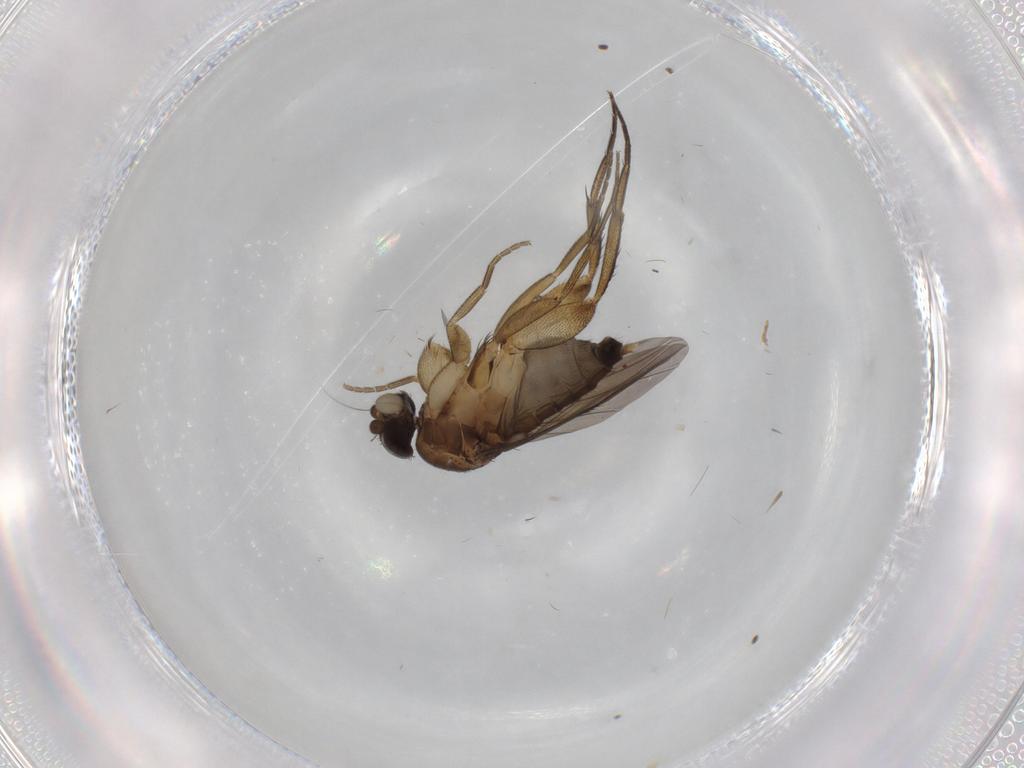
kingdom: Animalia
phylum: Arthropoda
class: Insecta
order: Diptera
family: Phoridae
